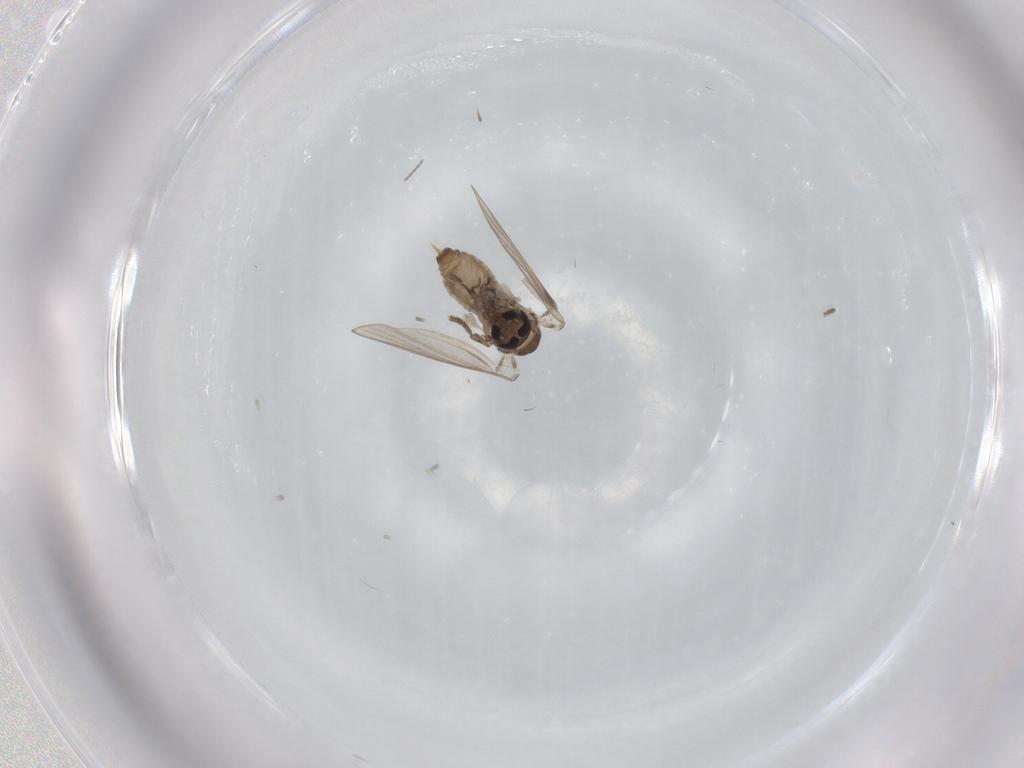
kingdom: Animalia
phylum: Arthropoda
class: Insecta
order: Diptera
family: Psychodidae
